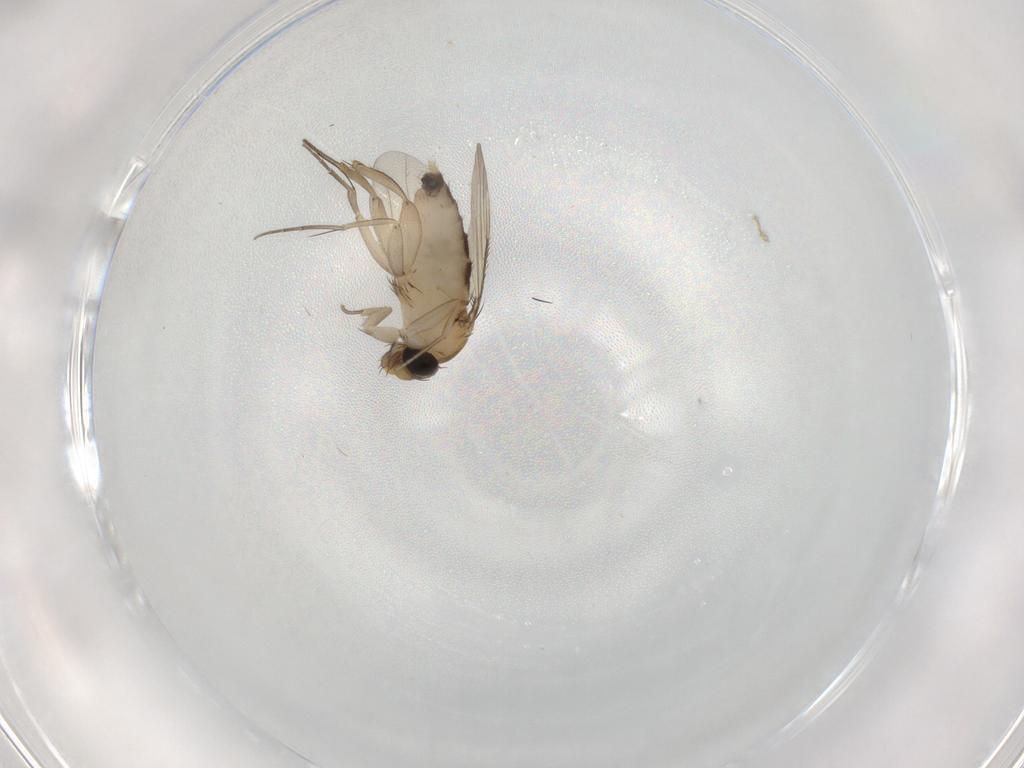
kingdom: Animalia
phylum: Arthropoda
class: Insecta
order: Diptera
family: Phoridae
